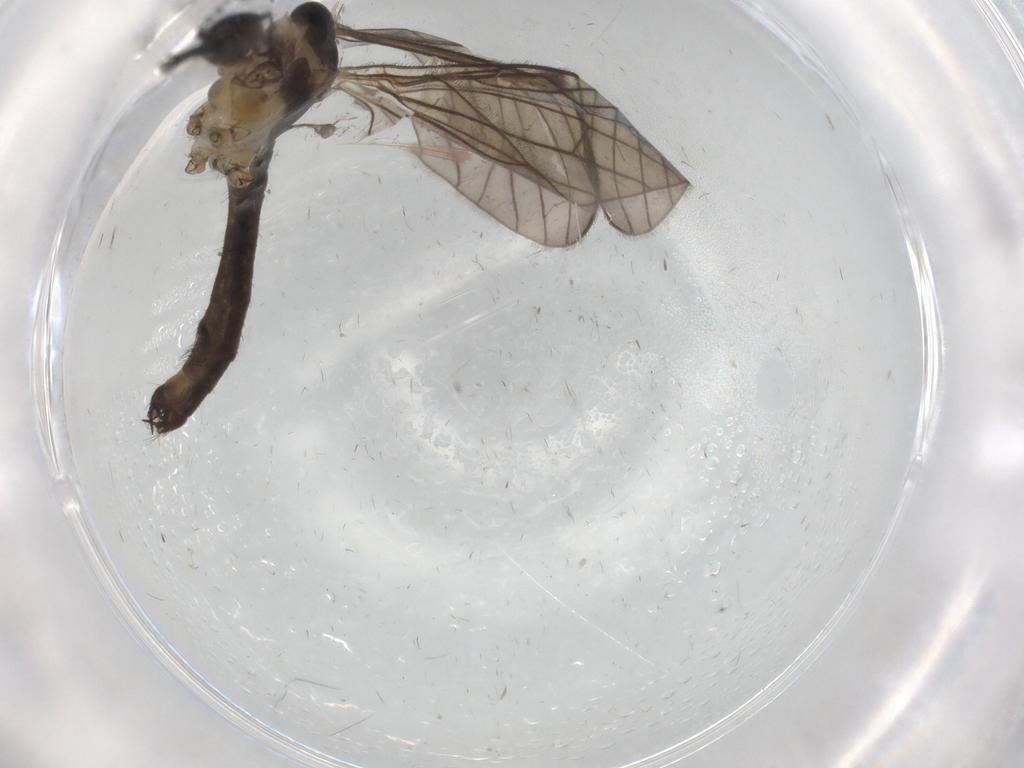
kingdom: Animalia
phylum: Arthropoda
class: Insecta
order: Diptera
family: Limoniidae
